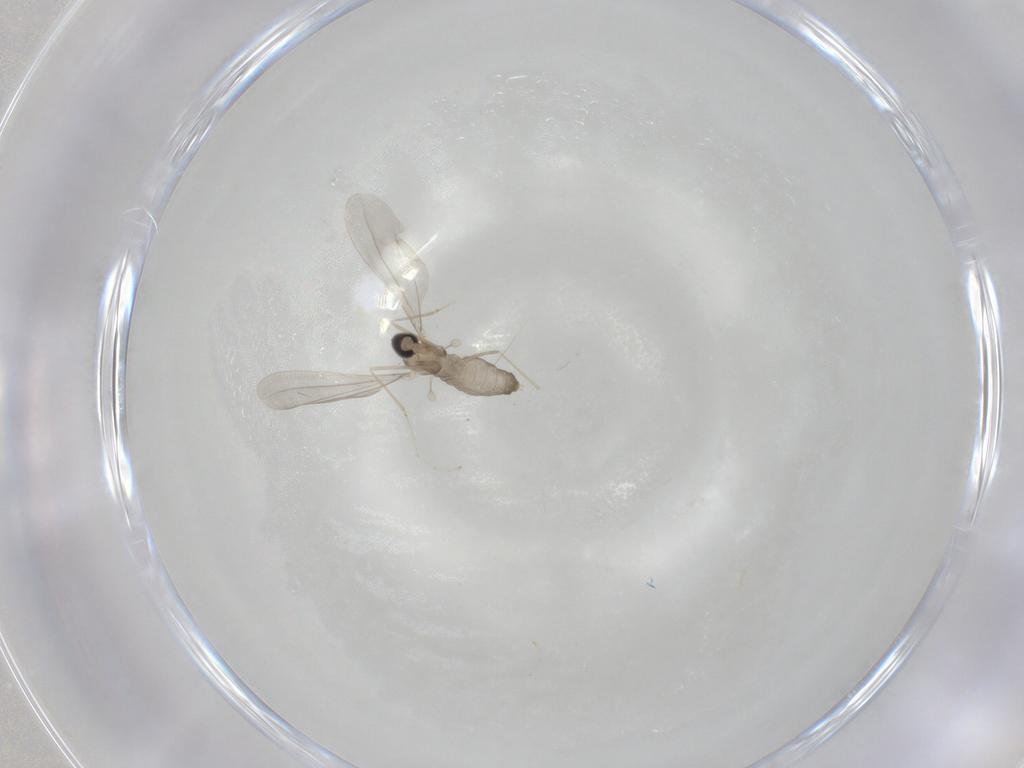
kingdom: Animalia
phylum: Arthropoda
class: Insecta
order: Diptera
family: Cecidomyiidae
